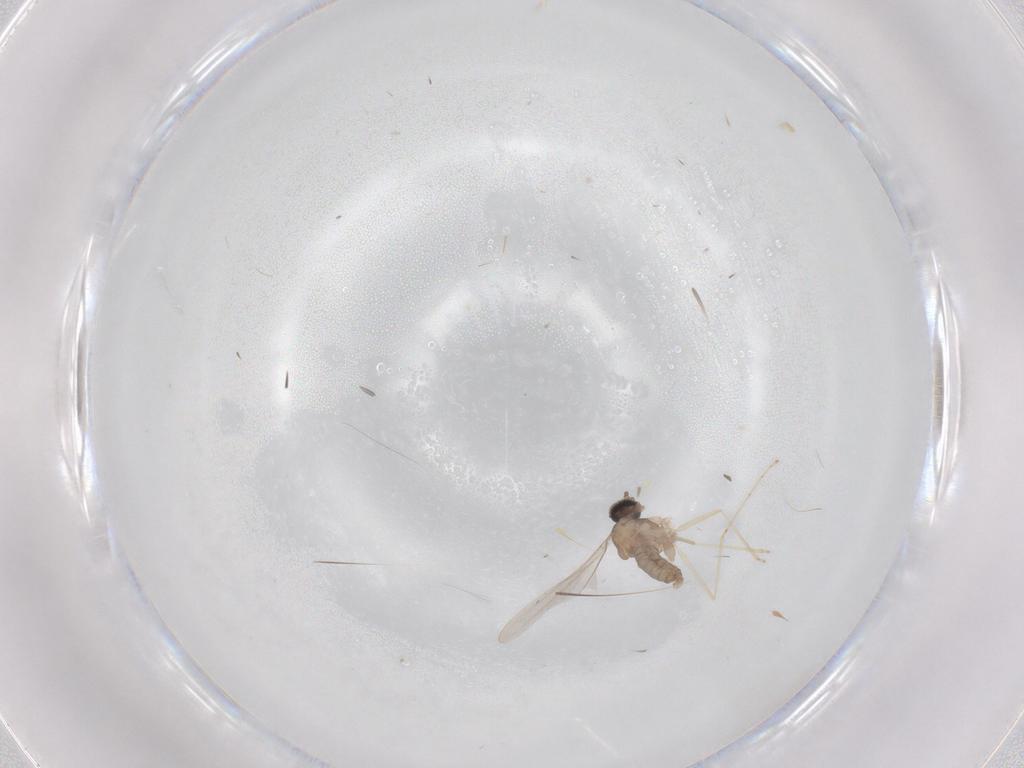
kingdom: Animalia
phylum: Arthropoda
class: Insecta
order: Diptera
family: Cecidomyiidae
